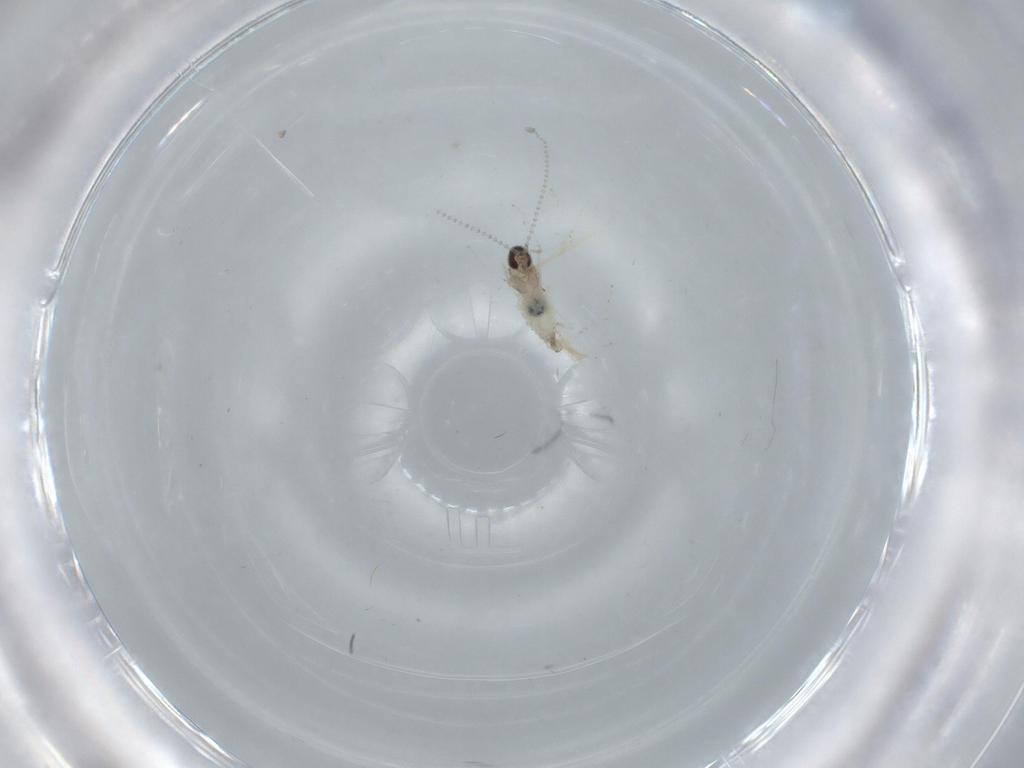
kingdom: Animalia
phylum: Arthropoda
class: Insecta
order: Diptera
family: Cecidomyiidae
